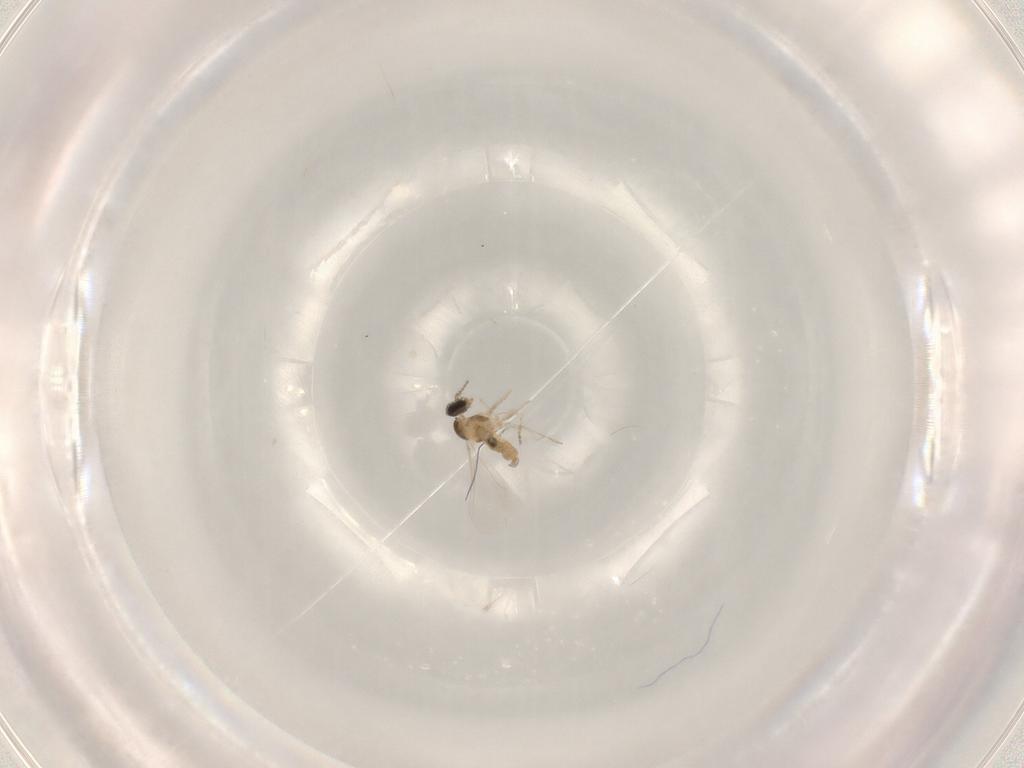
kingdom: Animalia
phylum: Arthropoda
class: Insecta
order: Diptera
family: Cecidomyiidae
